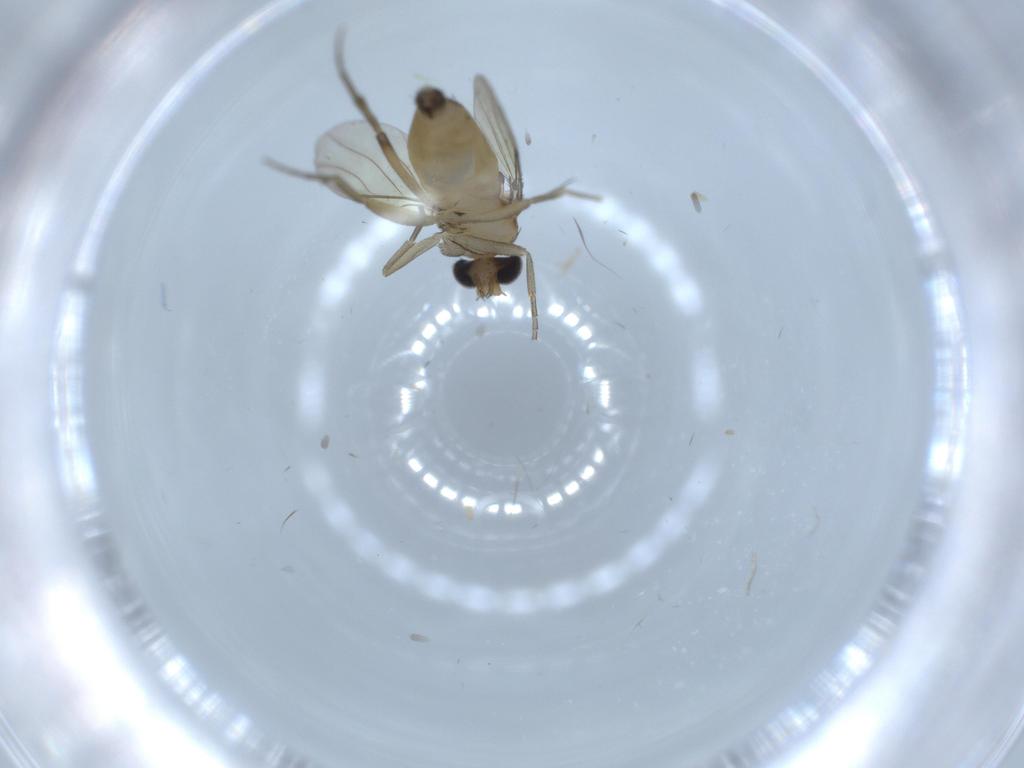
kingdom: Animalia
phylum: Arthropoda
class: Insecta
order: Diptera
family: Phoridae
